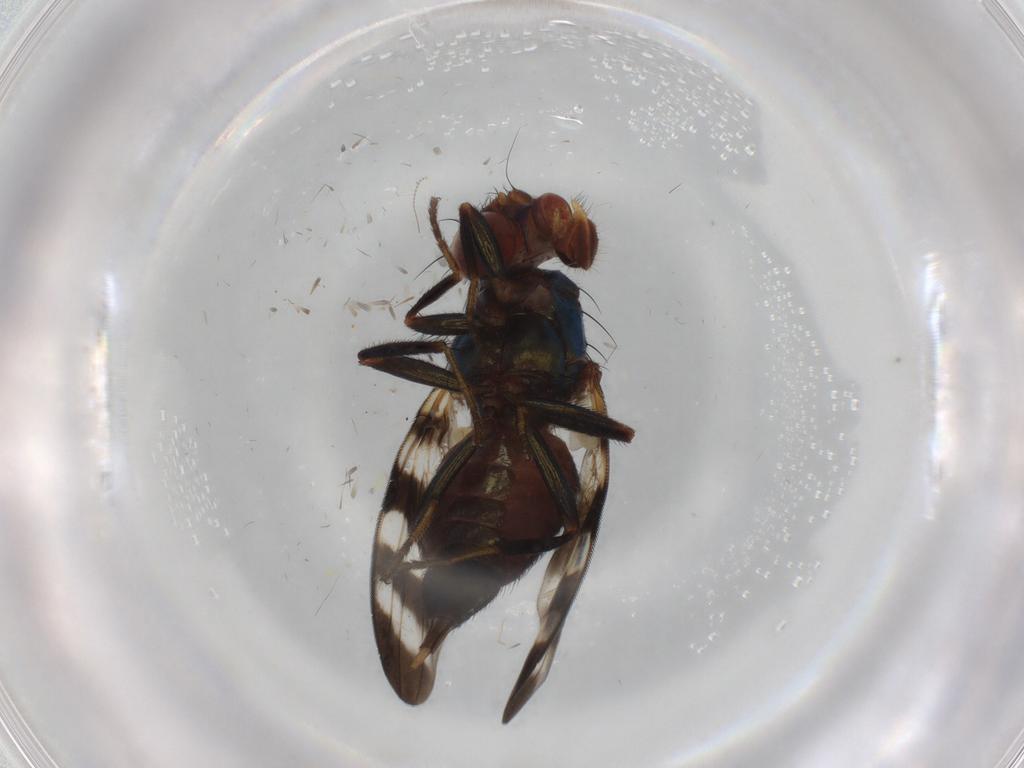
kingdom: Animalia
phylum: Arthropoda
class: Insecta
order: Diptera
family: Ulidiidae
